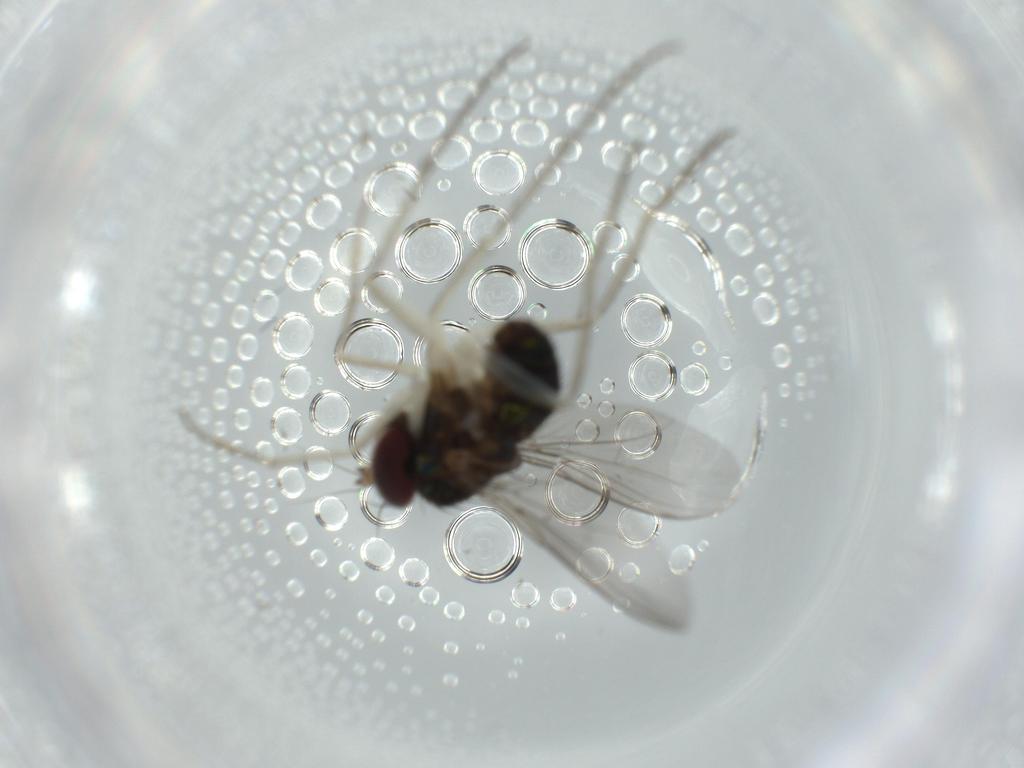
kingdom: Animalia
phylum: Arthropoda
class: Insecta
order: Diptera
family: Dolichopodidae
